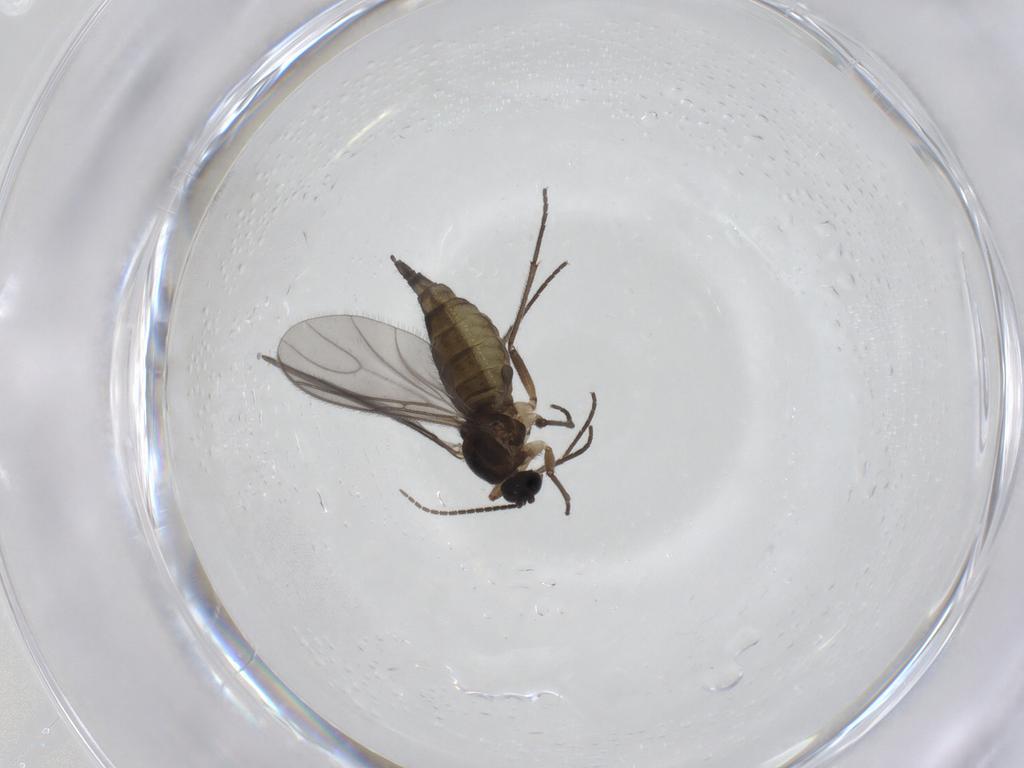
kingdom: Animalia
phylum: Arthropoda
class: Insecta
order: Diptera
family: Sciaridae
